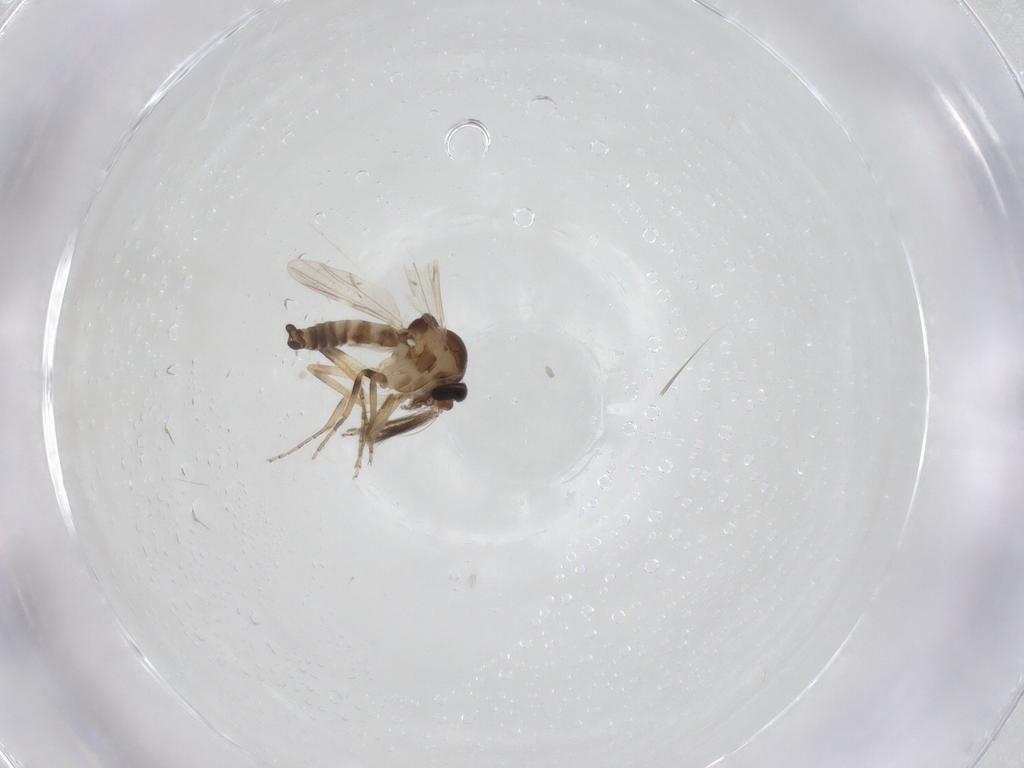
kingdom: Animalia
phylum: Arthropoda
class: Insecta
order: Diptera
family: Ceratopogonidae
